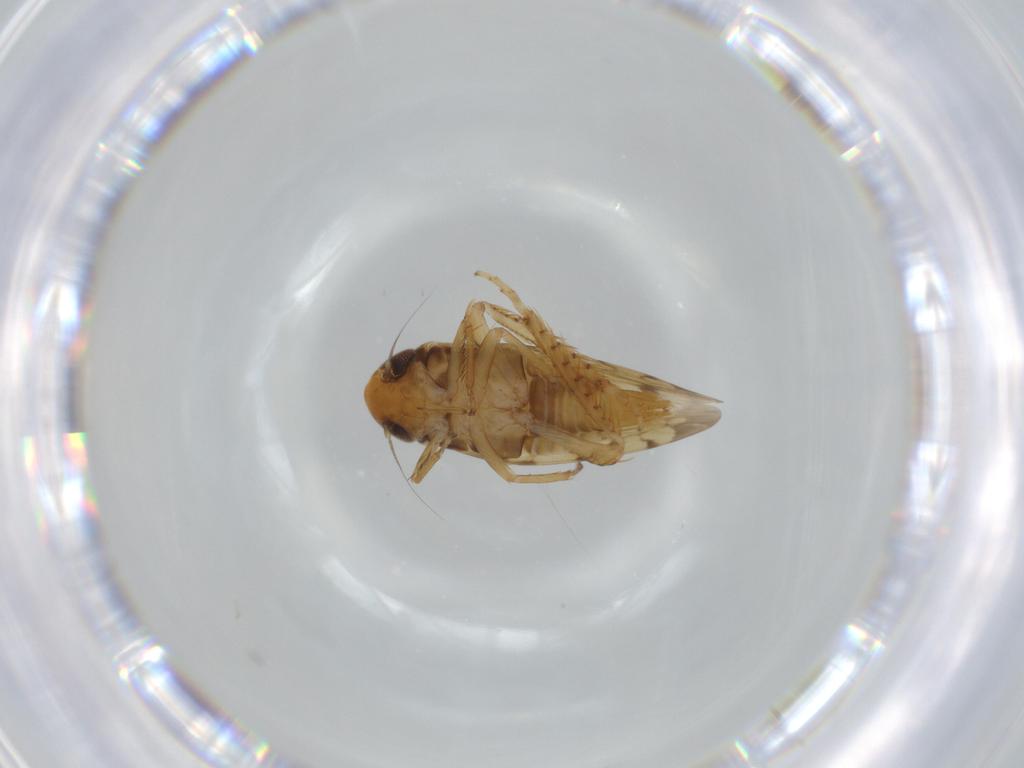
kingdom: Animalia
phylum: Arthropoda
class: Insecta
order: Hemiptera
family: Cicadellidae
